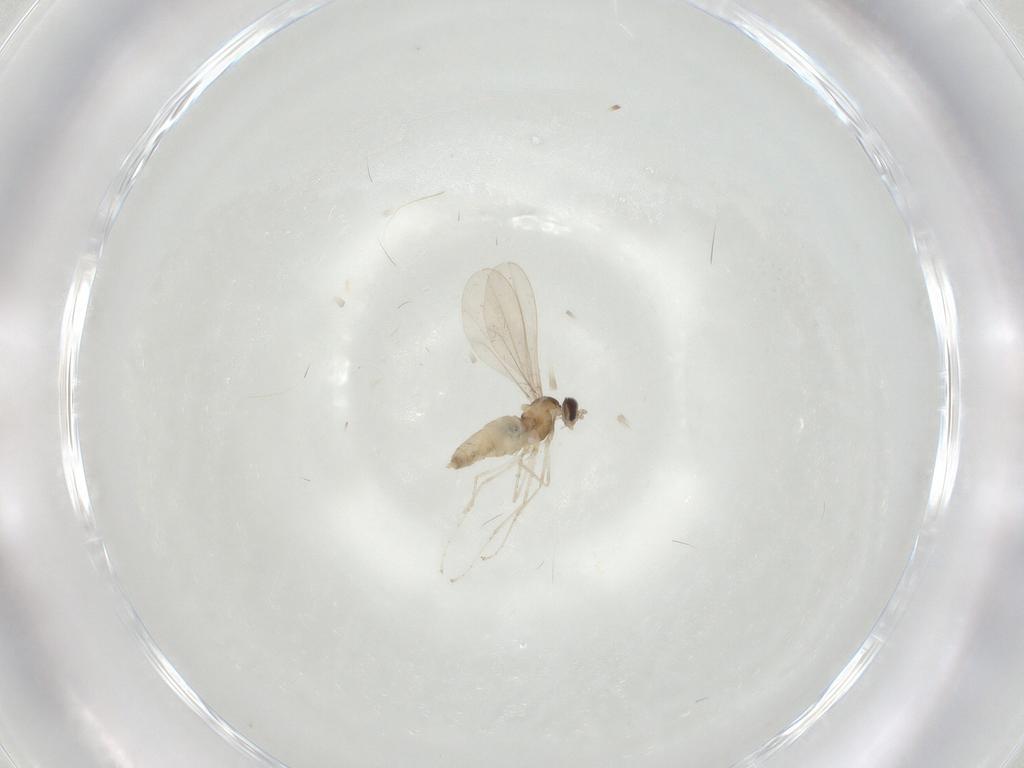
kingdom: Animalia
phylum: Arthropoda
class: Insecta
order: Diptera
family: Cecidomyiidae
